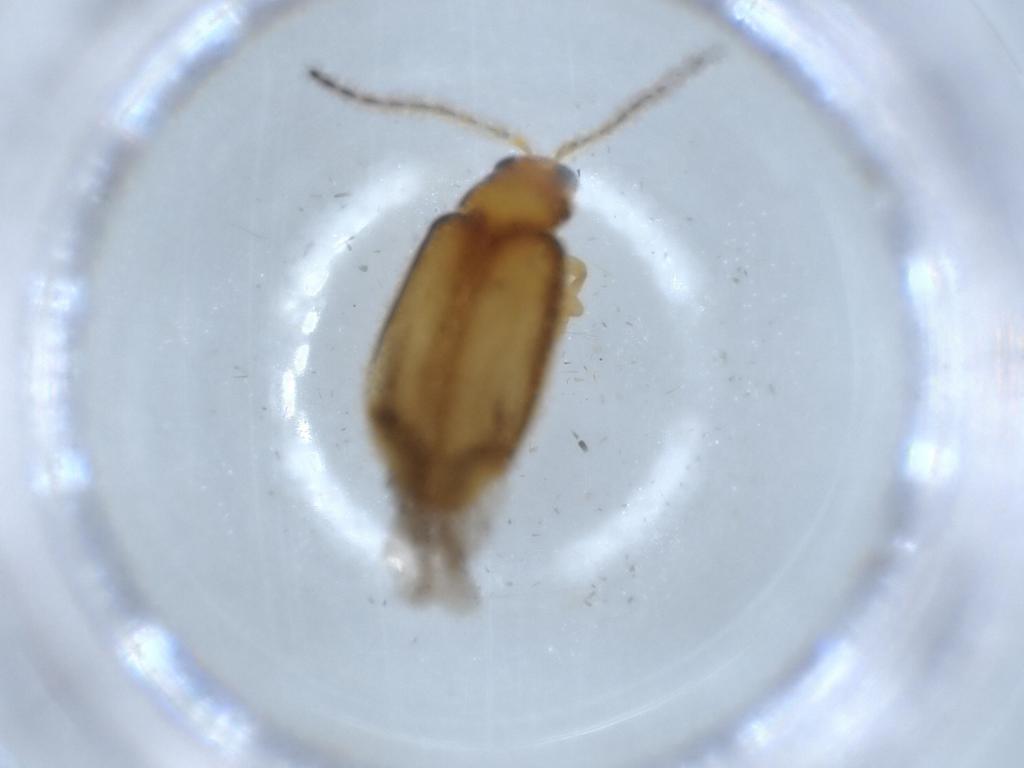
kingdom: Animalia
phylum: Arthropoda
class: Insecta
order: Coleoptera
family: Chrysomelidae
